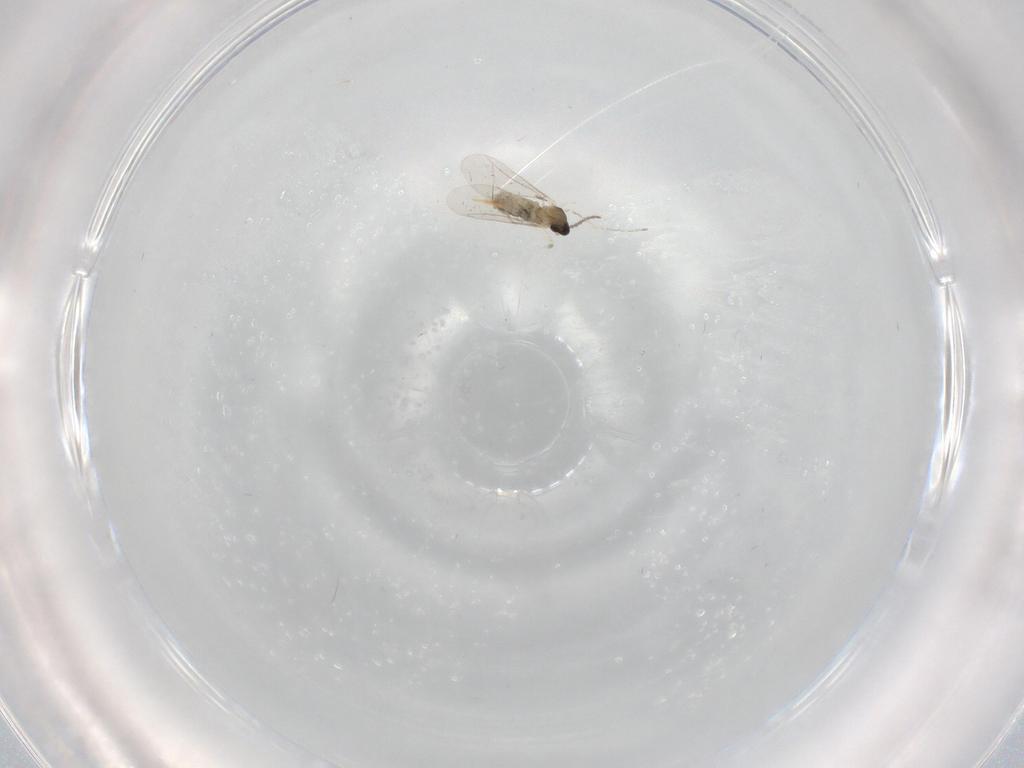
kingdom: Animalia
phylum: Arthropoda
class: Insecta
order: Diptera
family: Cecidomyiidae
